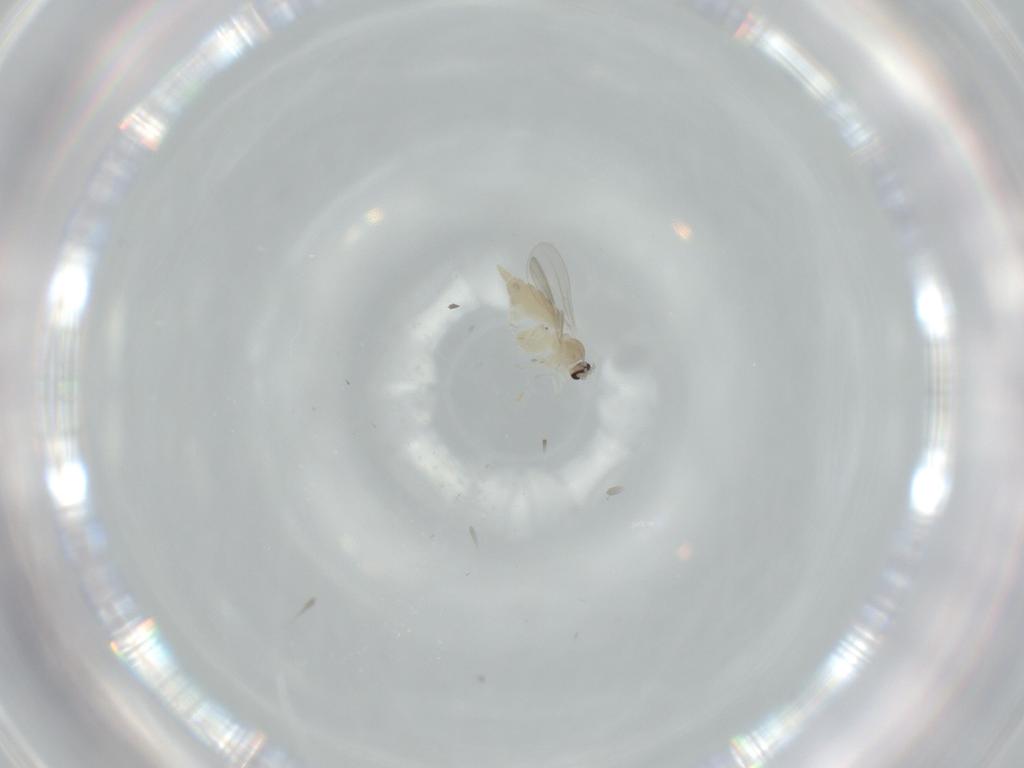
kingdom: Animalia
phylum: Arthropoda
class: Insecta
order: Diptera
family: Cecidomyiidae
